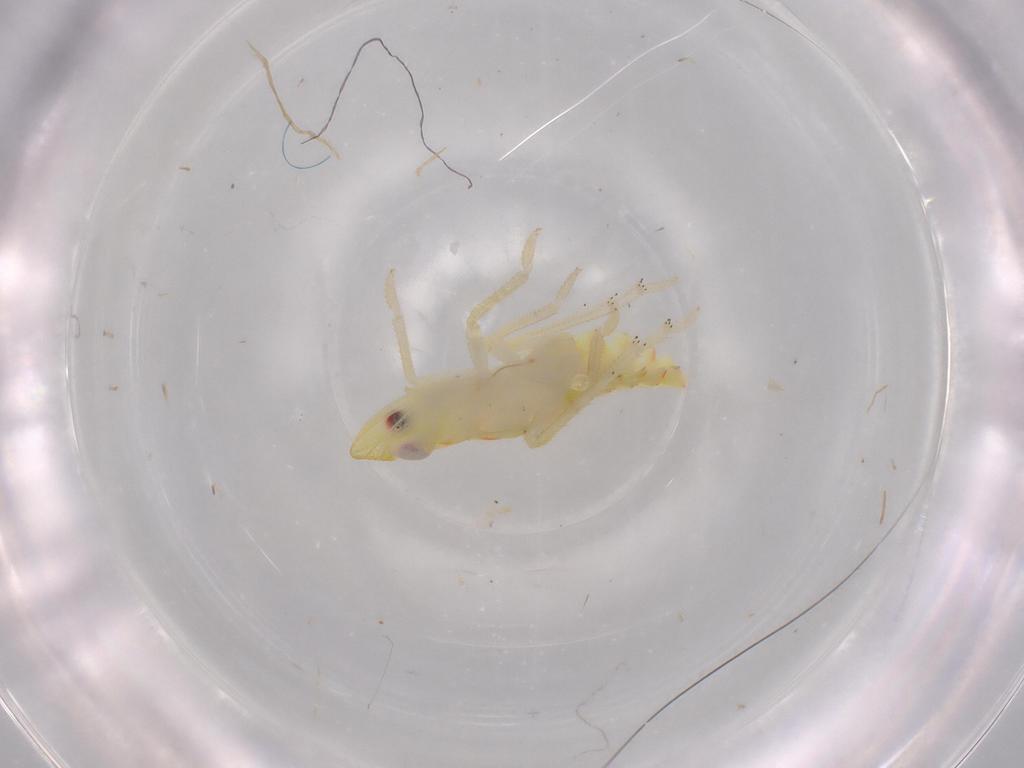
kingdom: Animalia
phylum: Arthropoda
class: Insecta
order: Hemiptera
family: Tropiduchidae
